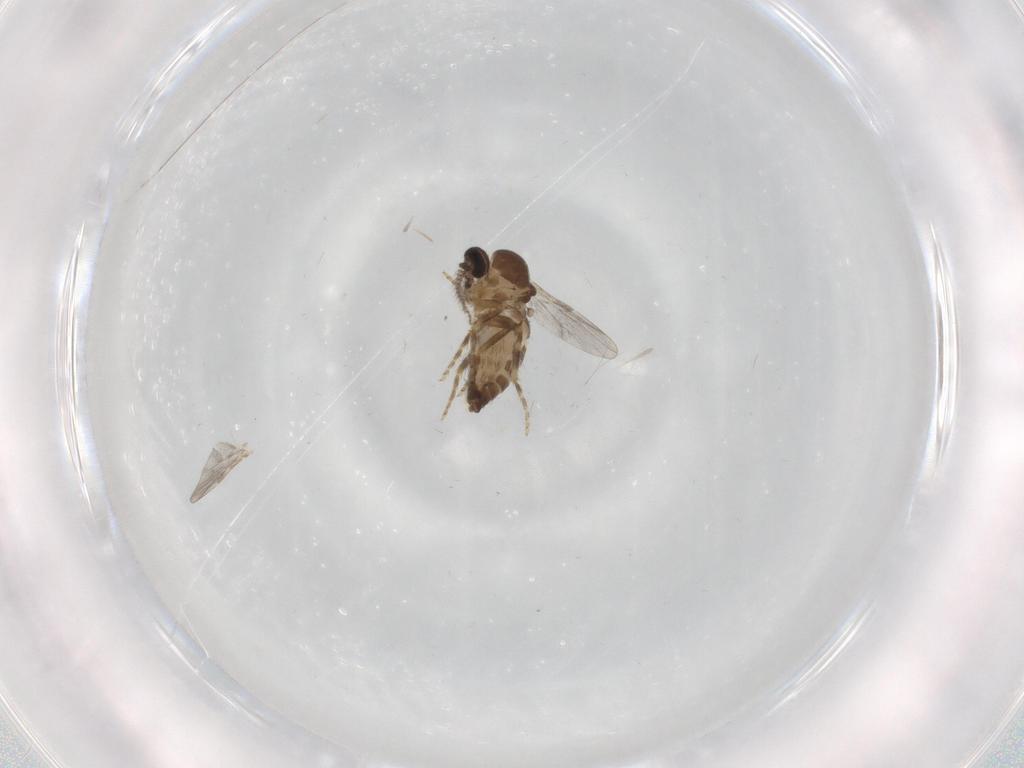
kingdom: Animalia
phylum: Arthropoda
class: Insecta
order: Diptera
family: Ceratopogonidae
